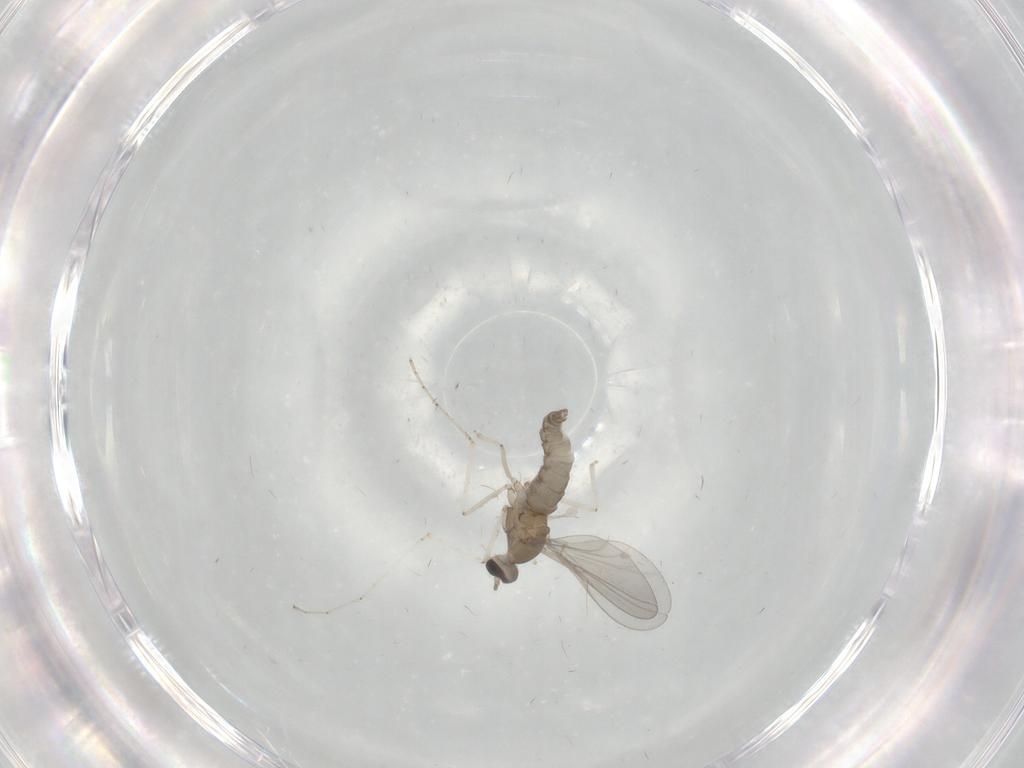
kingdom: Animalia
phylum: Arthropoda
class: Insecta
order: Diptera
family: Cecidomyiidae
